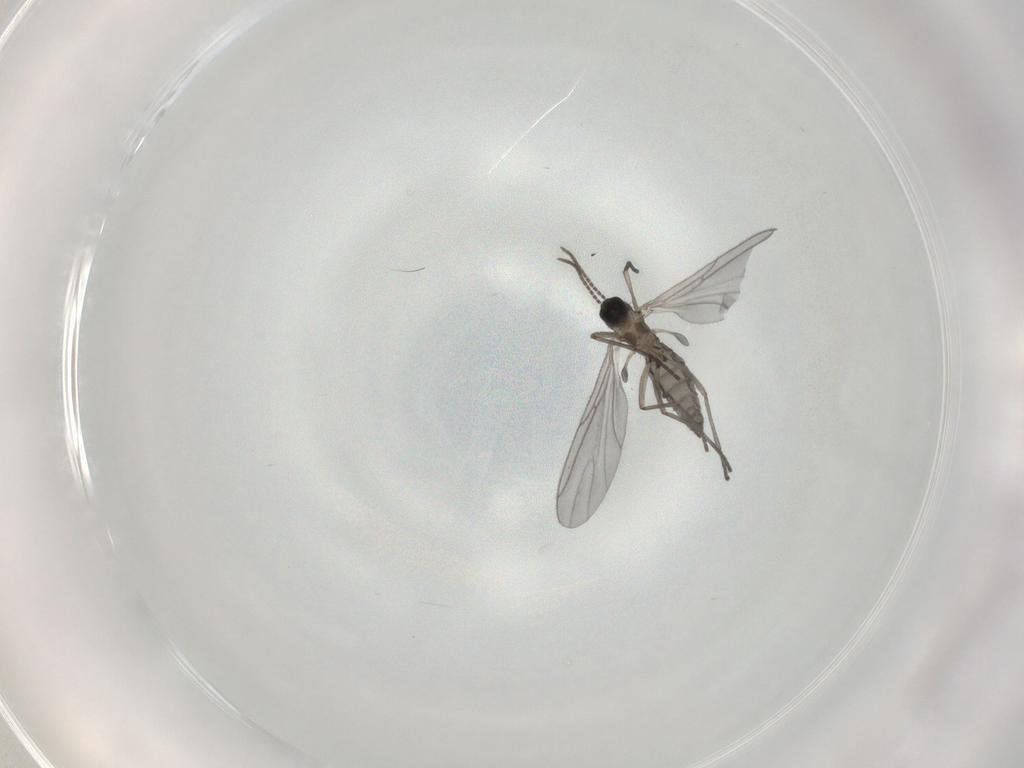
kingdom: Animalia
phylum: Arthropoda
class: Insecta
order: Diptera
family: Sciaridae
